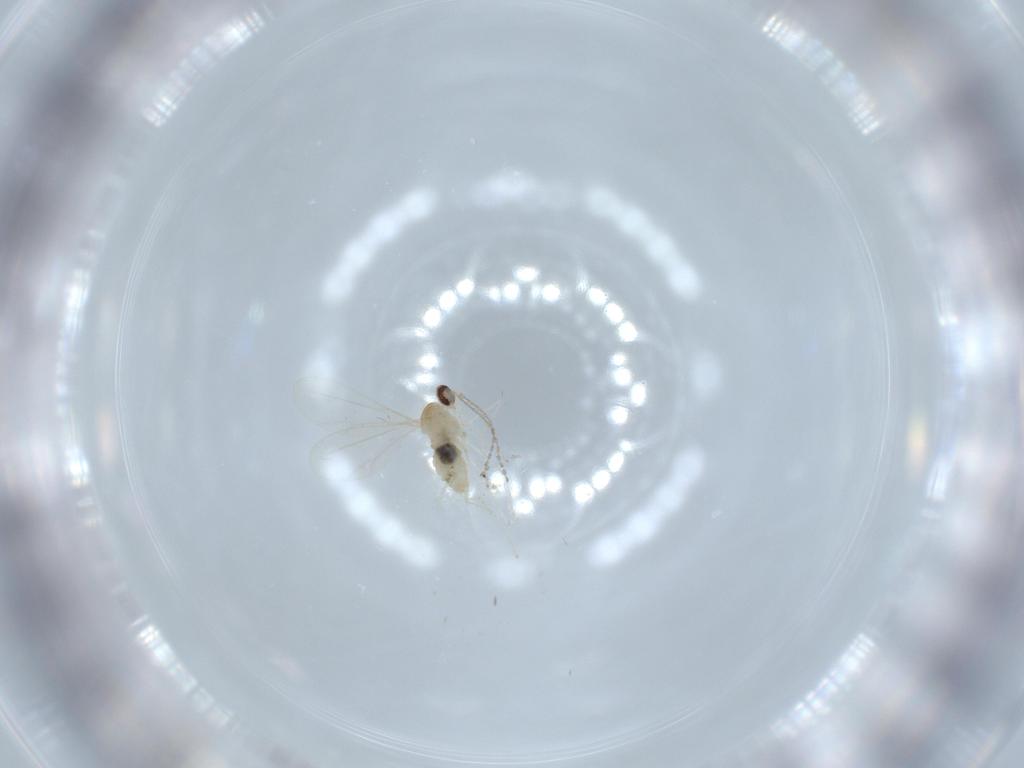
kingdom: Animalia
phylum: Arthropoda
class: Insecta
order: Diptera
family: Cecidomyiidae
